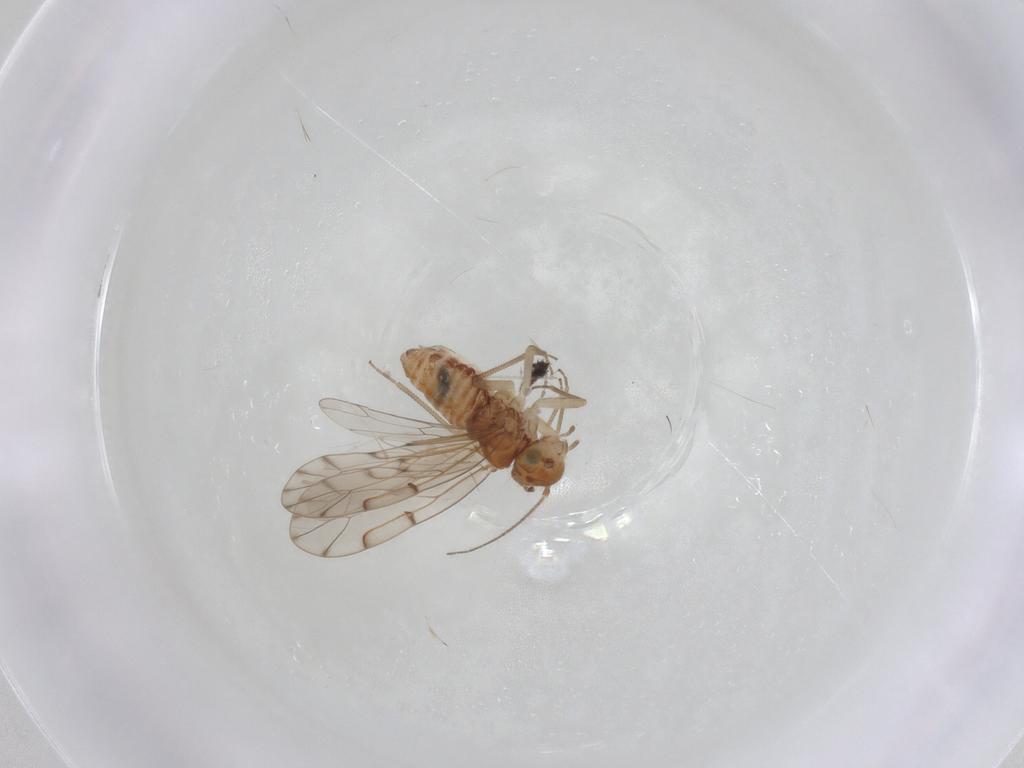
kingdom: Animalia
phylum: Arthropoda
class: Insecta
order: Psocodea
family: Ectopsocidae
